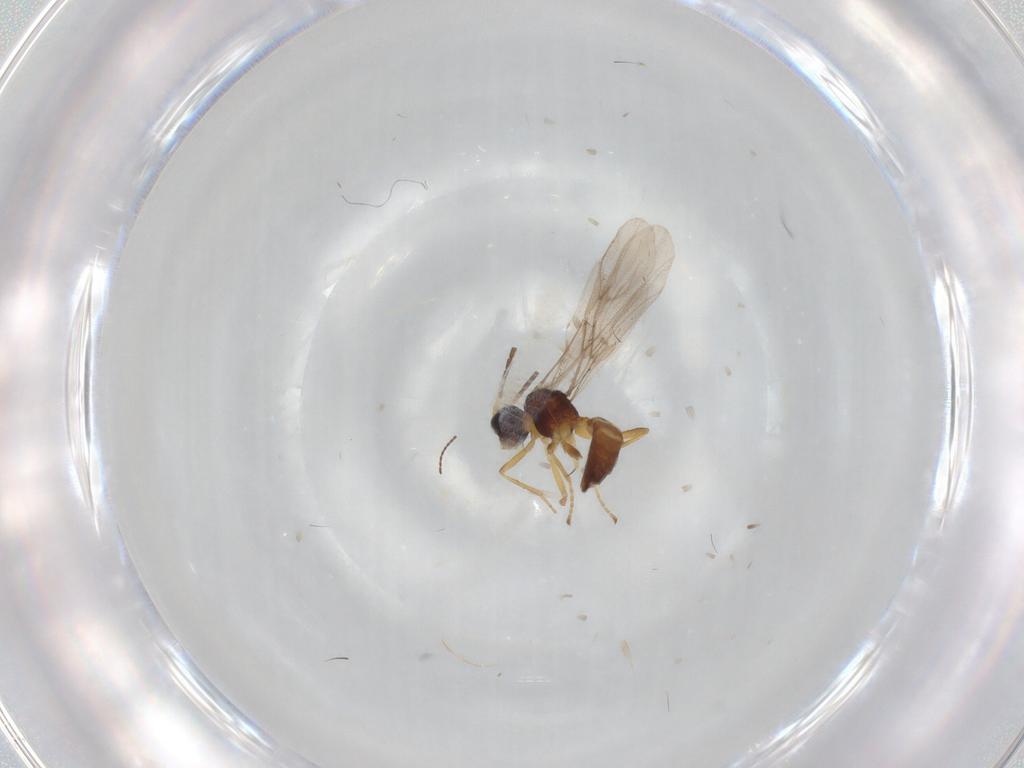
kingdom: Animalia
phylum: Arthropoda
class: Insecta
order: Hymenoptera
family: Braconidae
